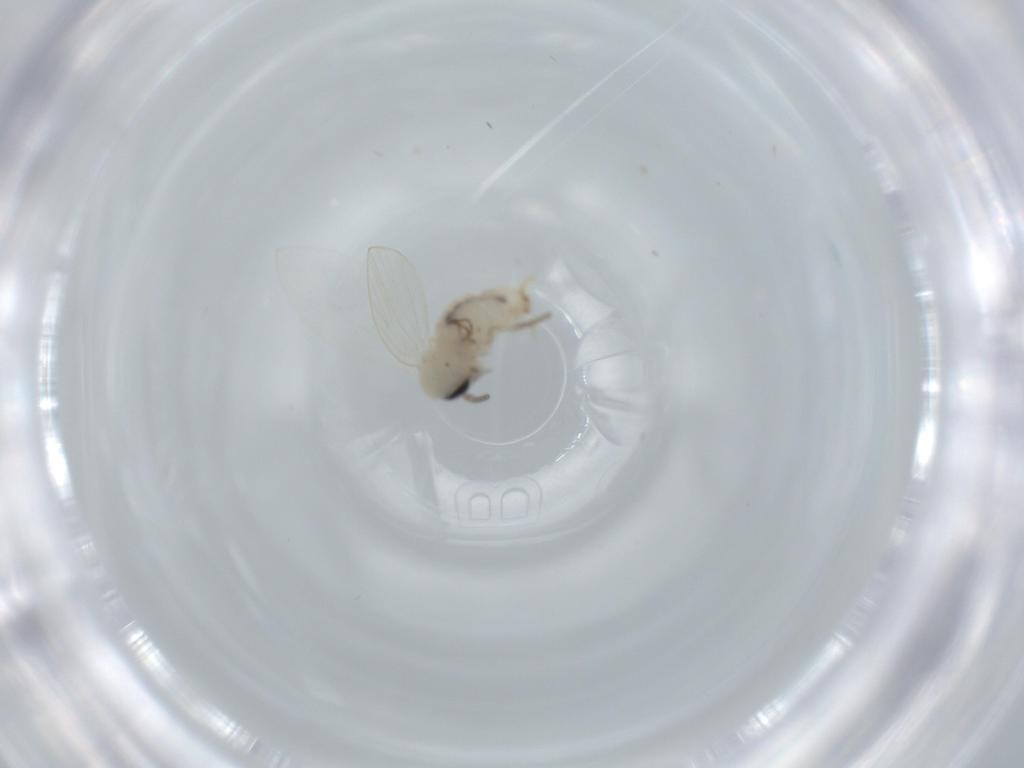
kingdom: Animalia
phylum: Arthropoda
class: Insecta
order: Diptera
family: Psychodidae
